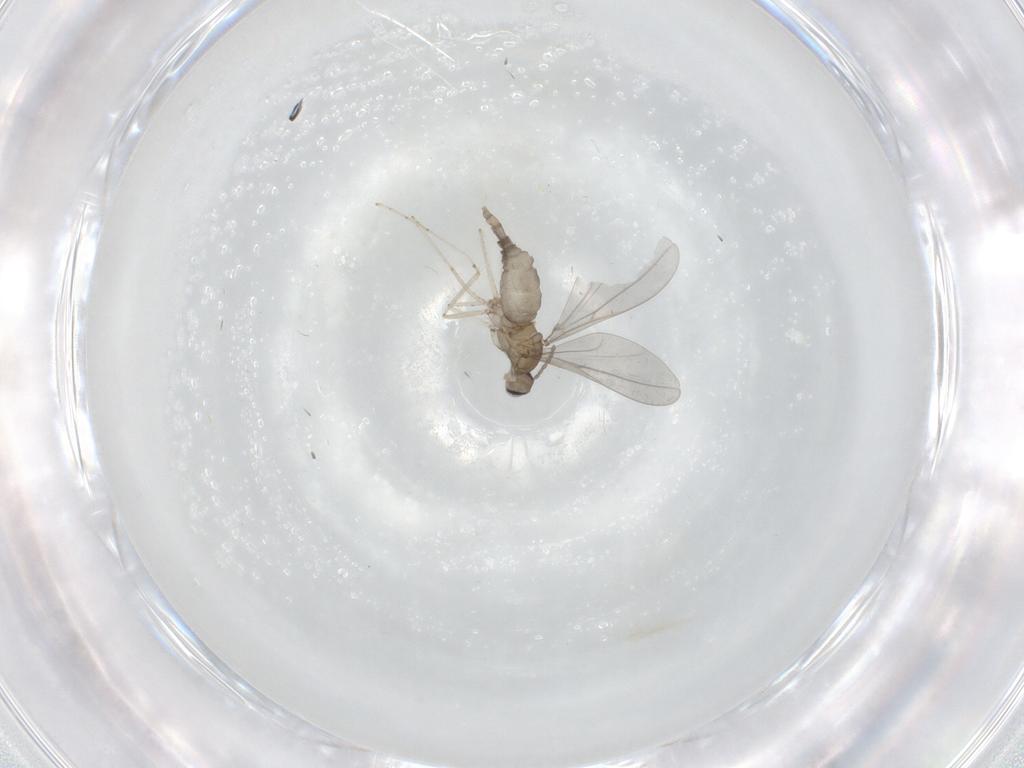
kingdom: Animalia
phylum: Arthropoda
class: Insecta
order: Diptera
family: Cecidomyiidae
